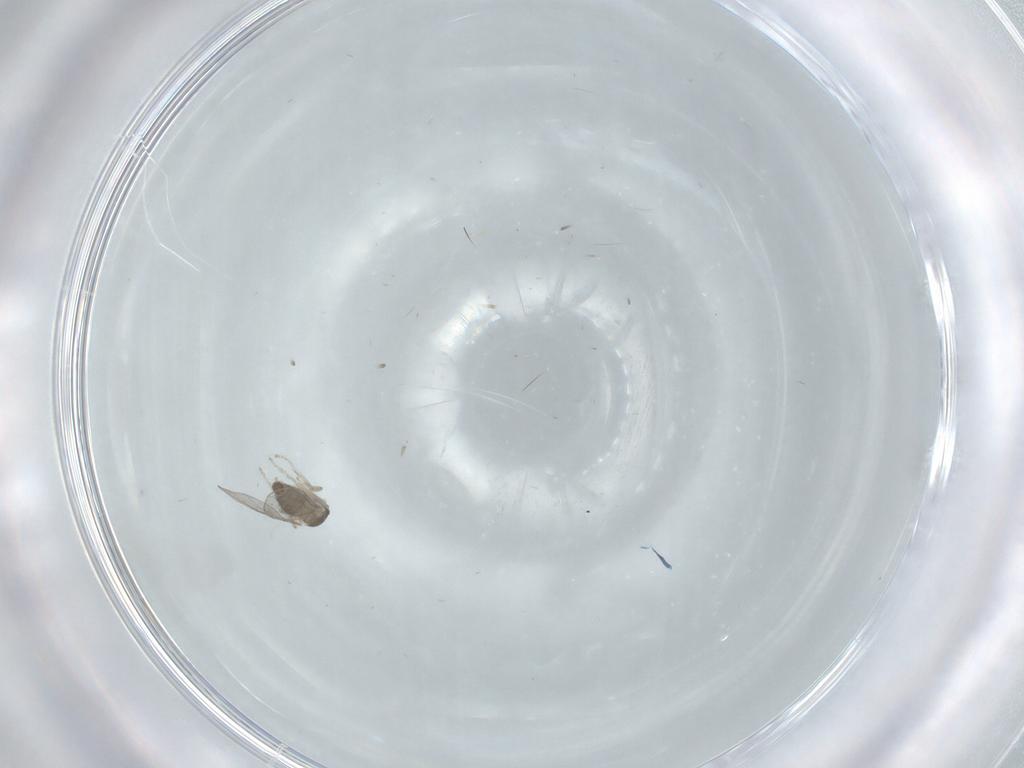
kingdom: Animalia
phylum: Arthropoda
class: Insecta
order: Diptera
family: Cecidomyiidae
